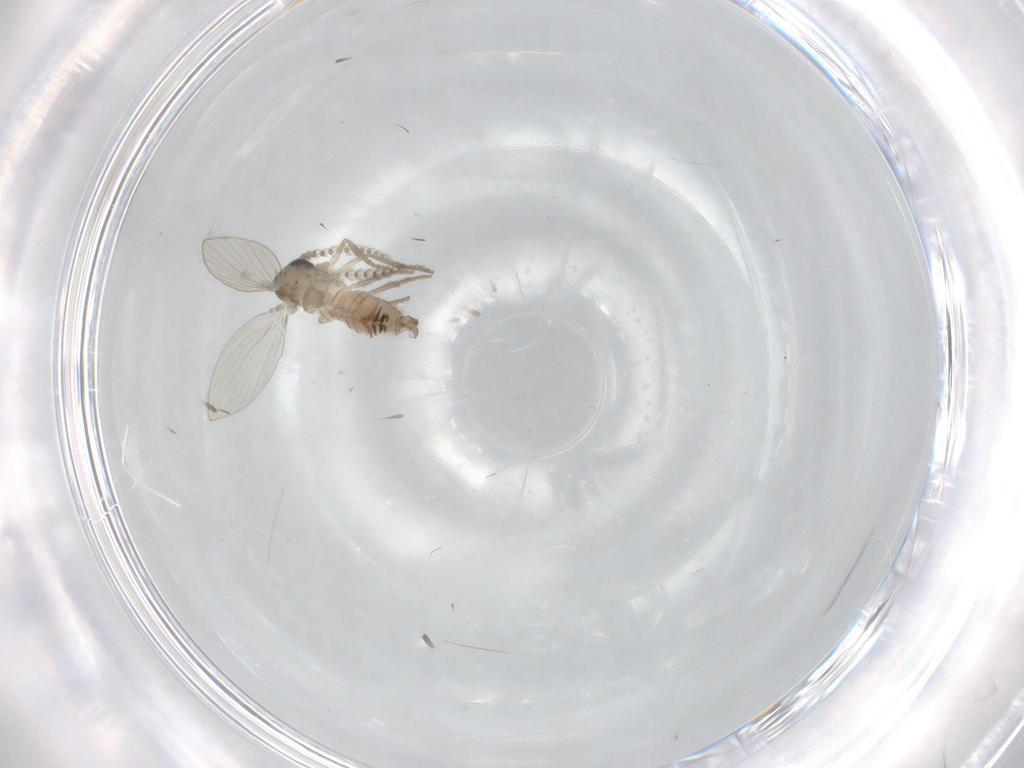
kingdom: Animalia
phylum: Arthropoda
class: Insecta
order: Diptera
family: Psychodidae
